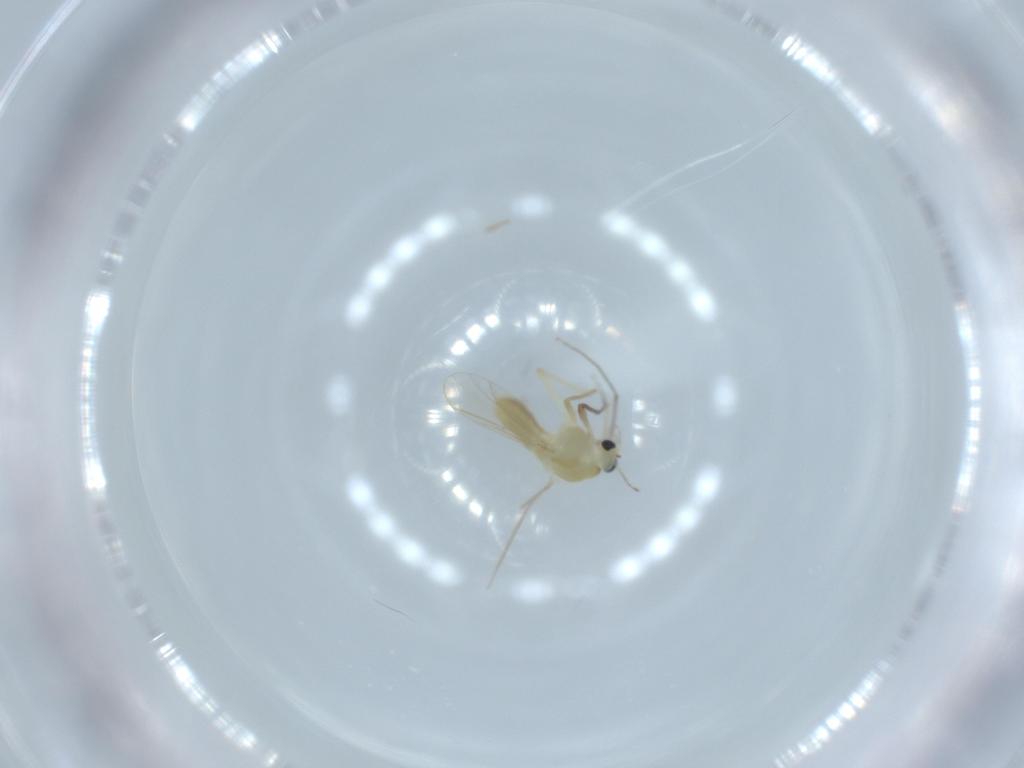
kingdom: Animalia
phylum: Arthropoda
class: Insecta
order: Diptera
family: Chironomidae
